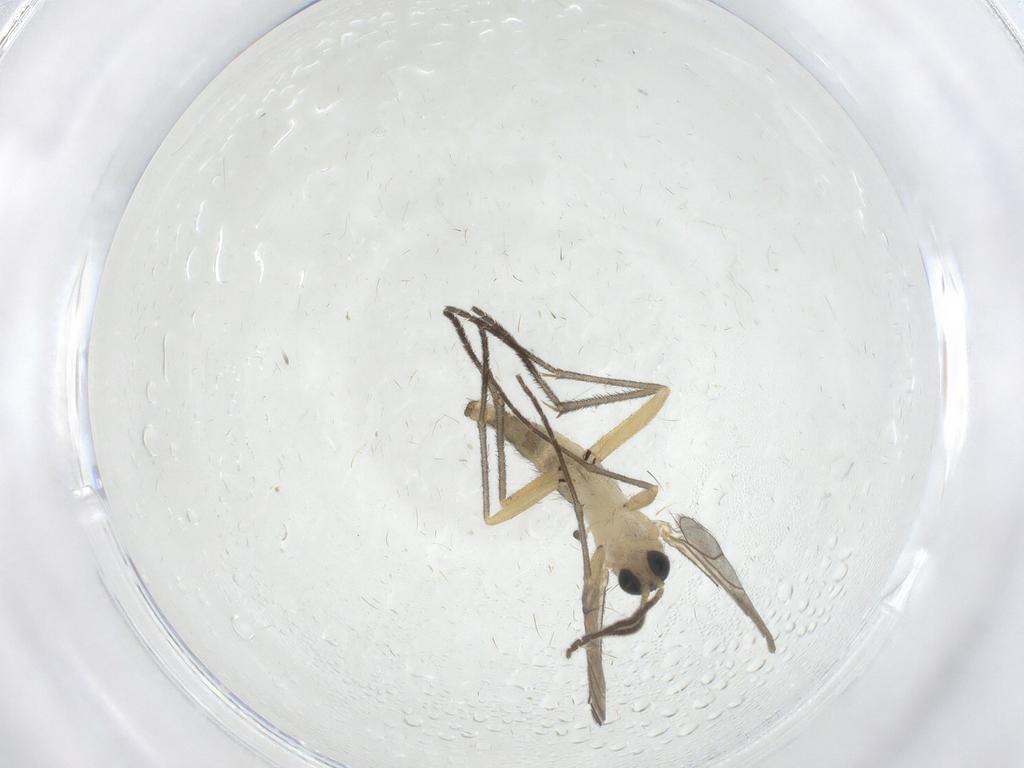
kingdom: Animalia
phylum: Arthropoda
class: Insecta
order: Diptera
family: Sciaridae
